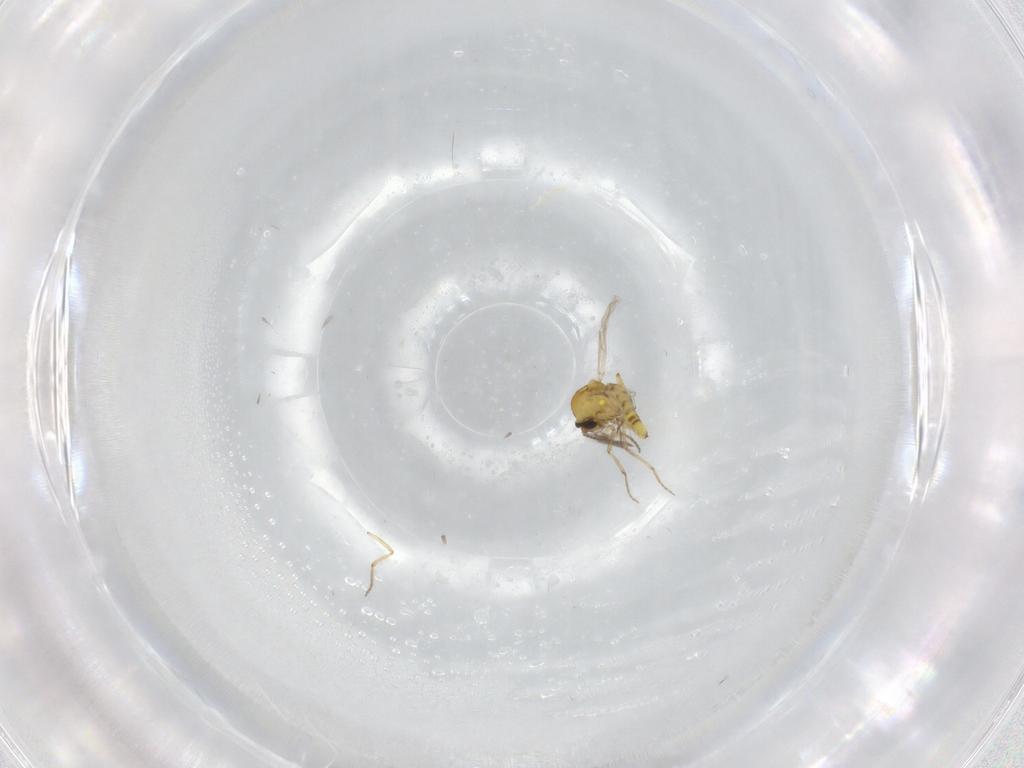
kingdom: Animalia
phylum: Arthropoda
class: Insecta
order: Diptera
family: Ceratopogonidae
